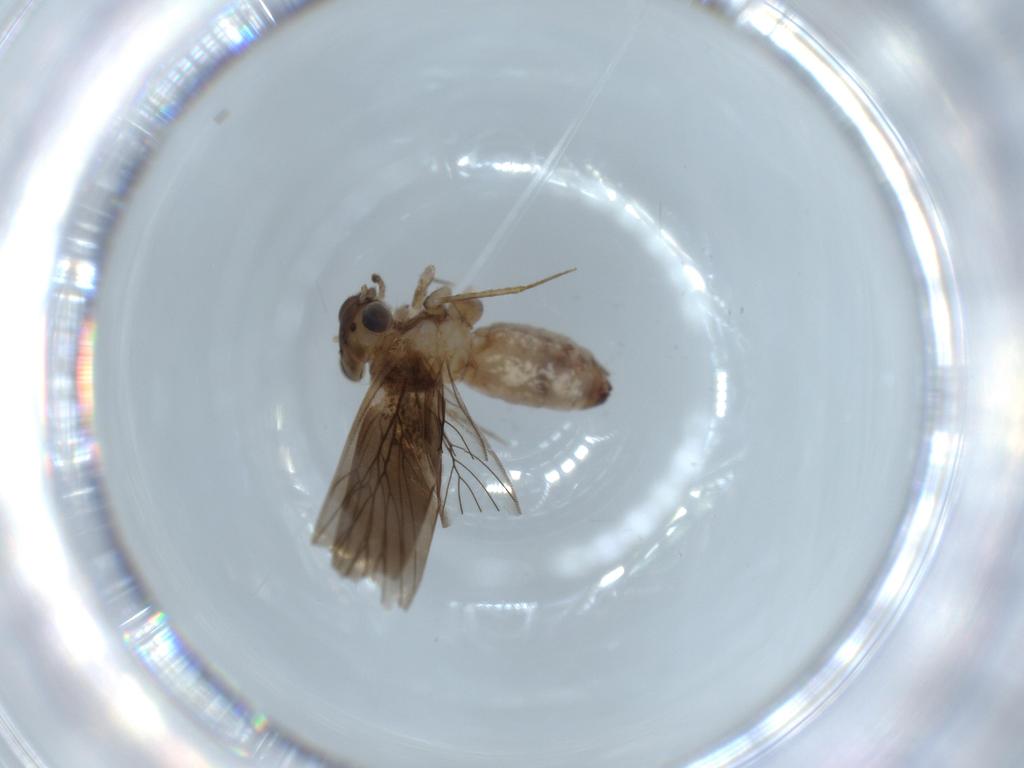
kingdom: Animalia
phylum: Arthropoda
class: Insecta
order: Psocodea
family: Lepidopsocidae
